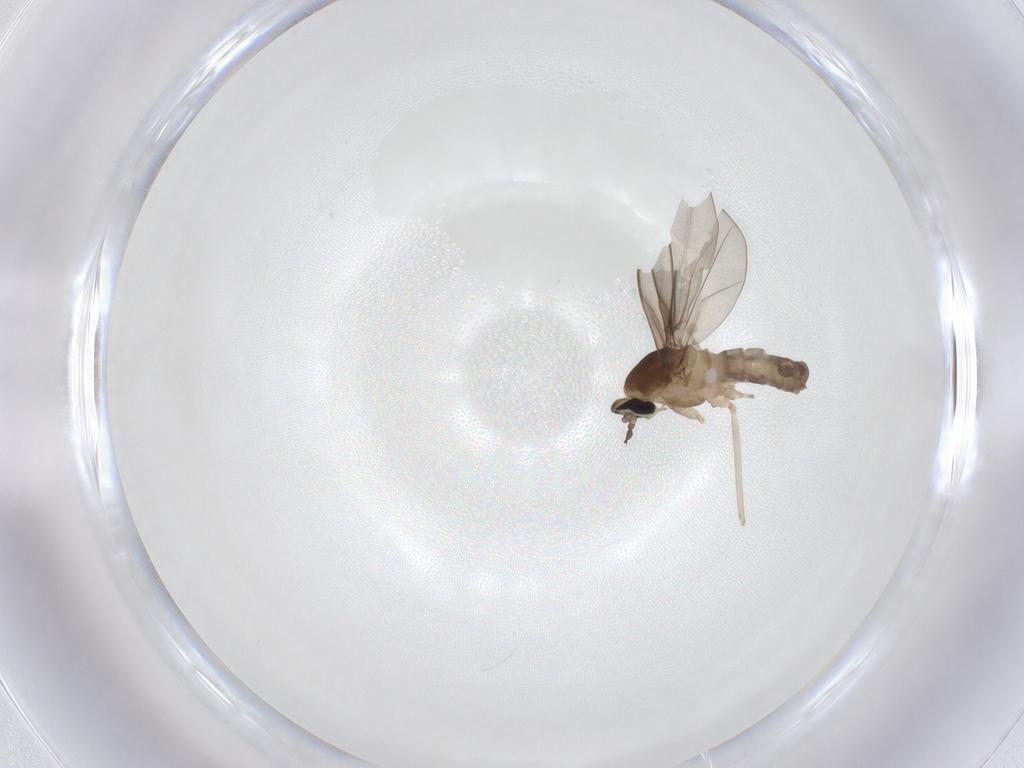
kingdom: Animalia
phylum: Arthropoda
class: Insecta
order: Diptera
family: Cecidomyiidae
